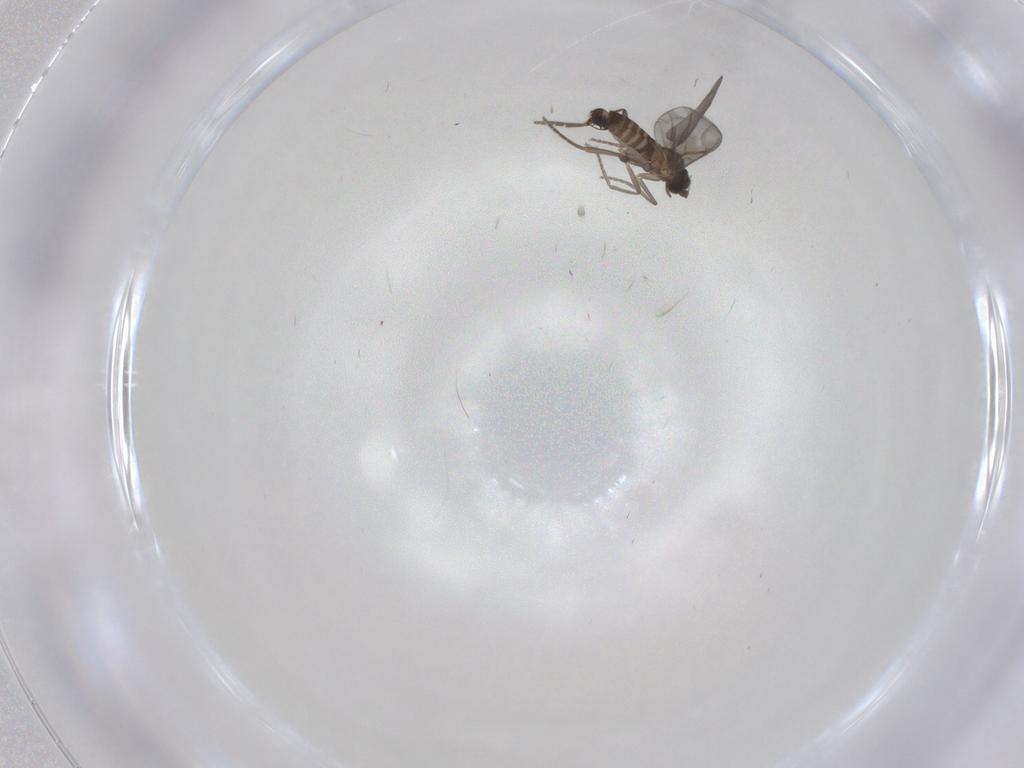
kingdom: Animalia
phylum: Arthropoda
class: Insecta
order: Diptera
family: Phoridae
